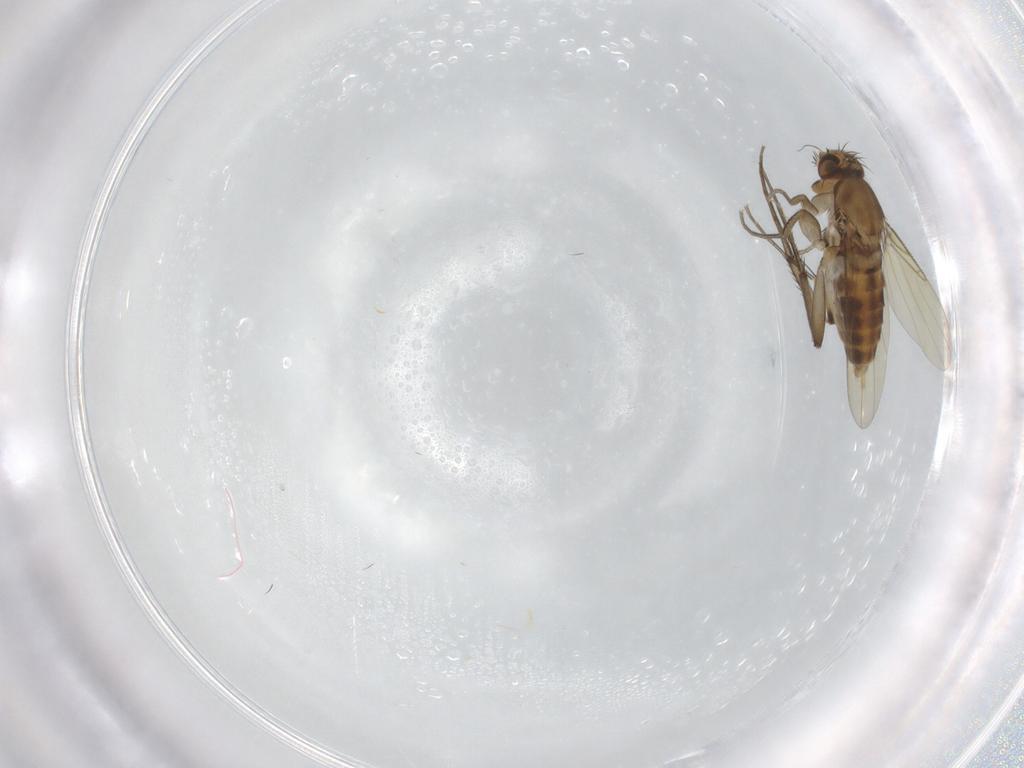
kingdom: Animalia
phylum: Arthropoda
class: Insecta
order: Diptera
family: Phoridae
